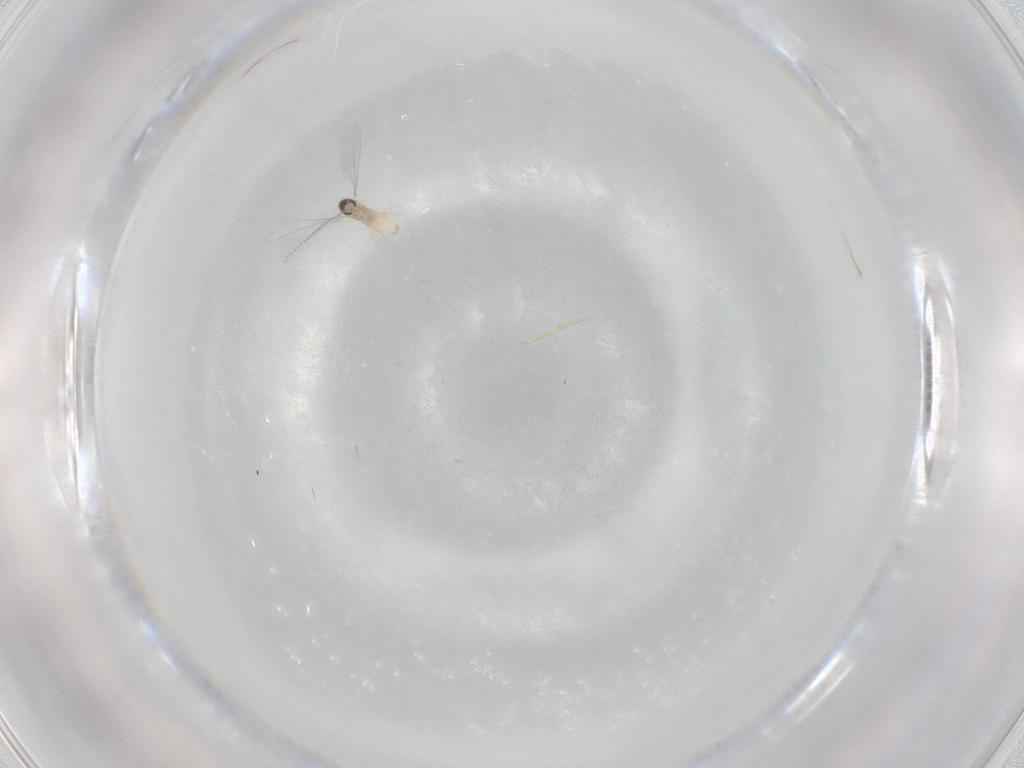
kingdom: Animalia
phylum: Arthropoda
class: Insecta
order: Diptera
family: Cecidomyiidae
